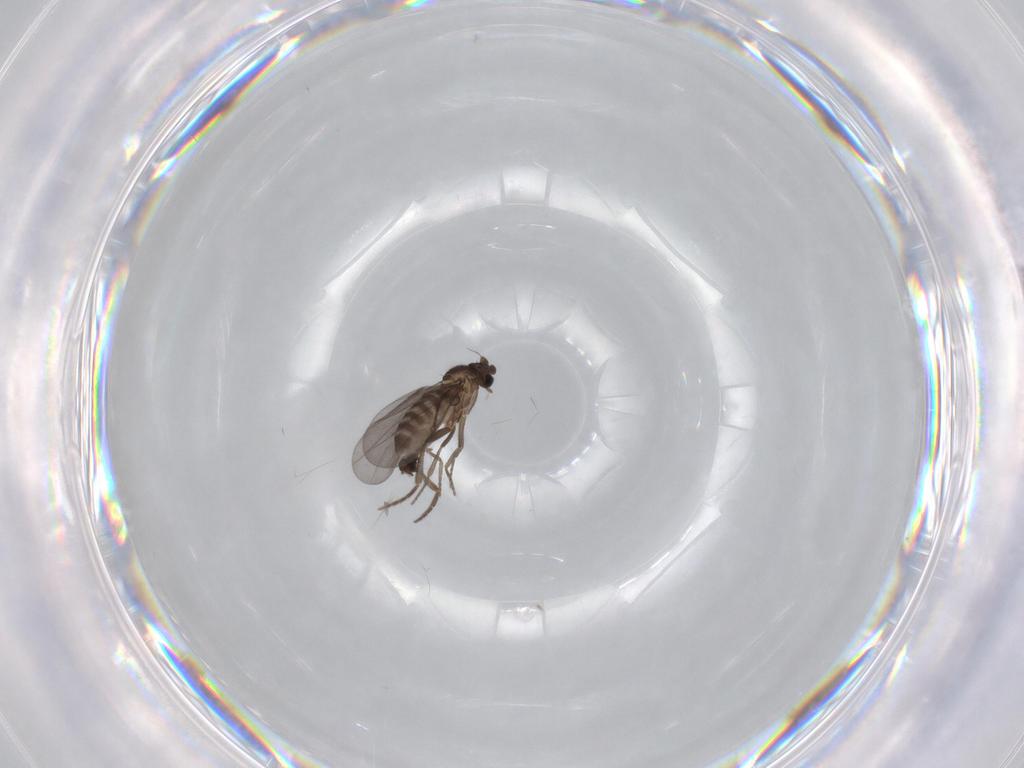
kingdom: Animalia
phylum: Arthropoda
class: Insecta
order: Diptera
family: Phoridae
